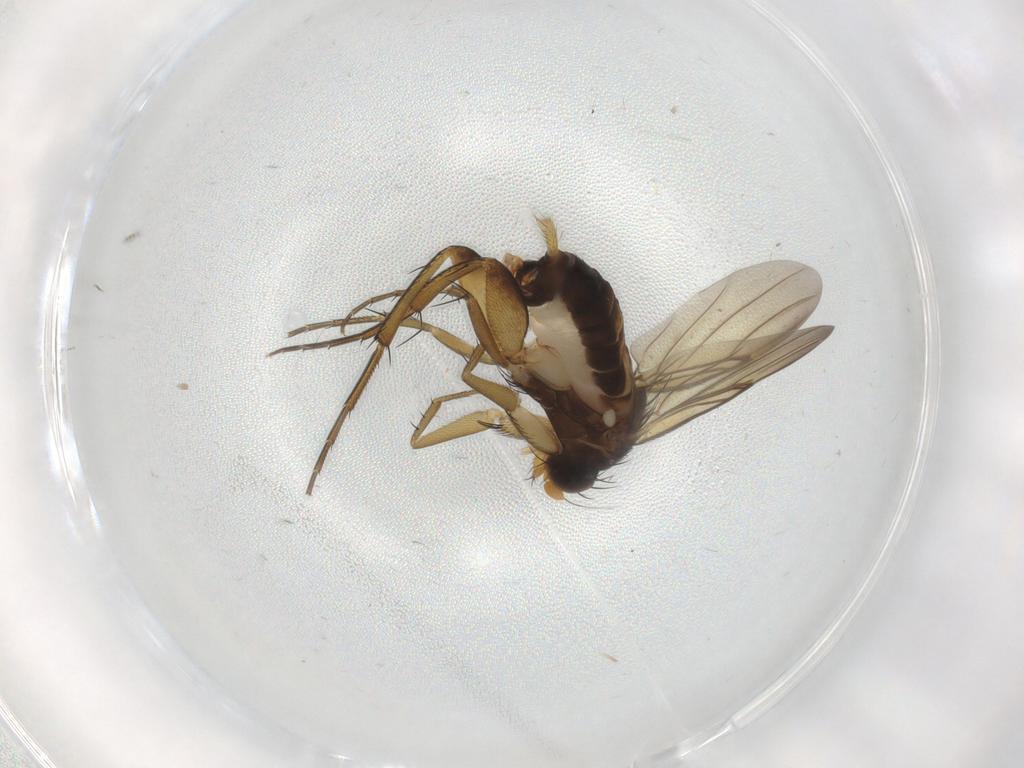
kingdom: Animalia
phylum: Arthropoda
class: Insecta
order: Diptera
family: Phoridae
